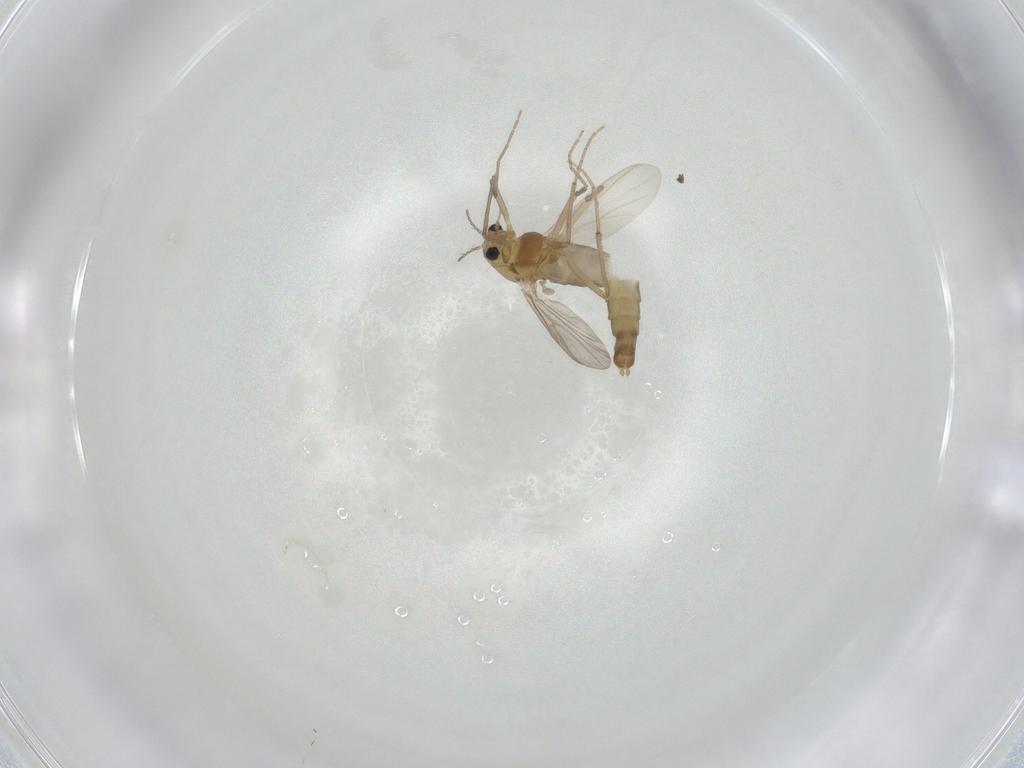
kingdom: Animalia
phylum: Arthropoda
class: Insecta
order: Diptera
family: Chironomidae
